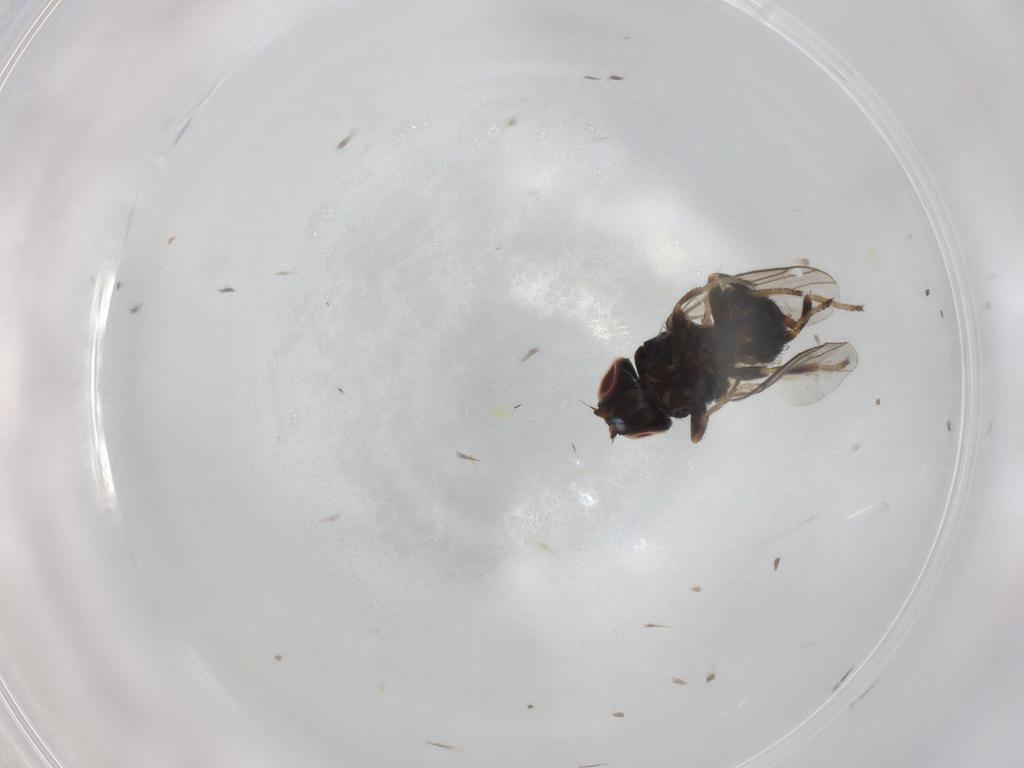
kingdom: Animalia
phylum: Arthropoda
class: Insecta
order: Diptera
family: Chloropidae
